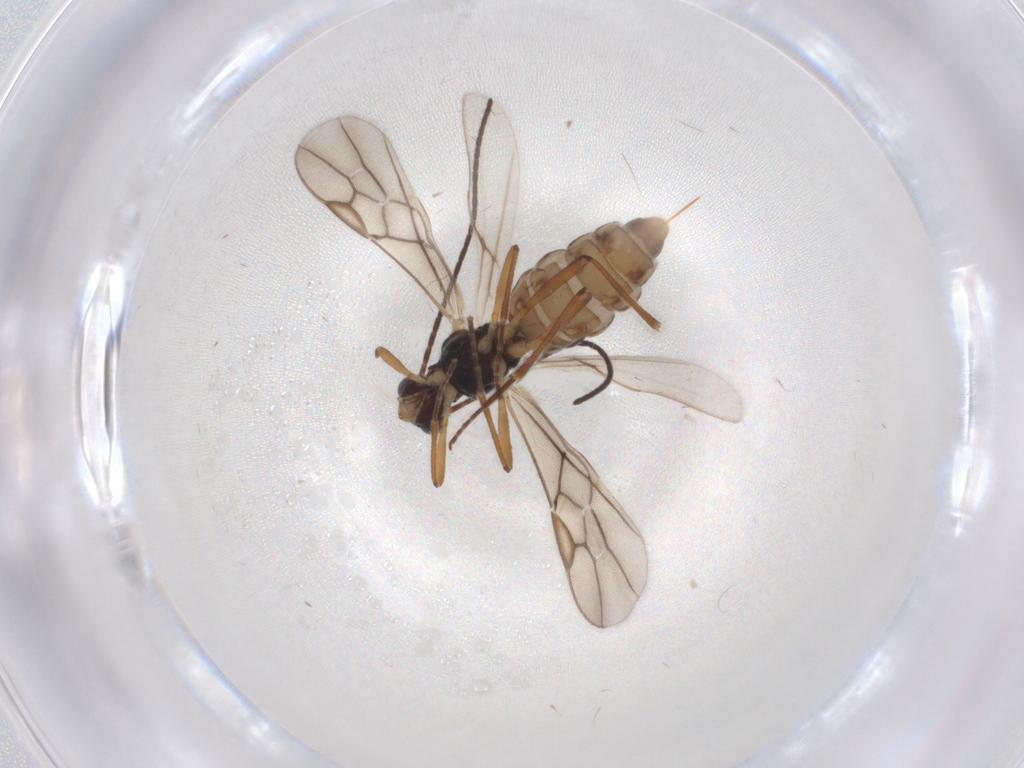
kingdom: Animalia
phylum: Arthropoda
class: Insecta
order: Hymenoptera
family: Braconidae
